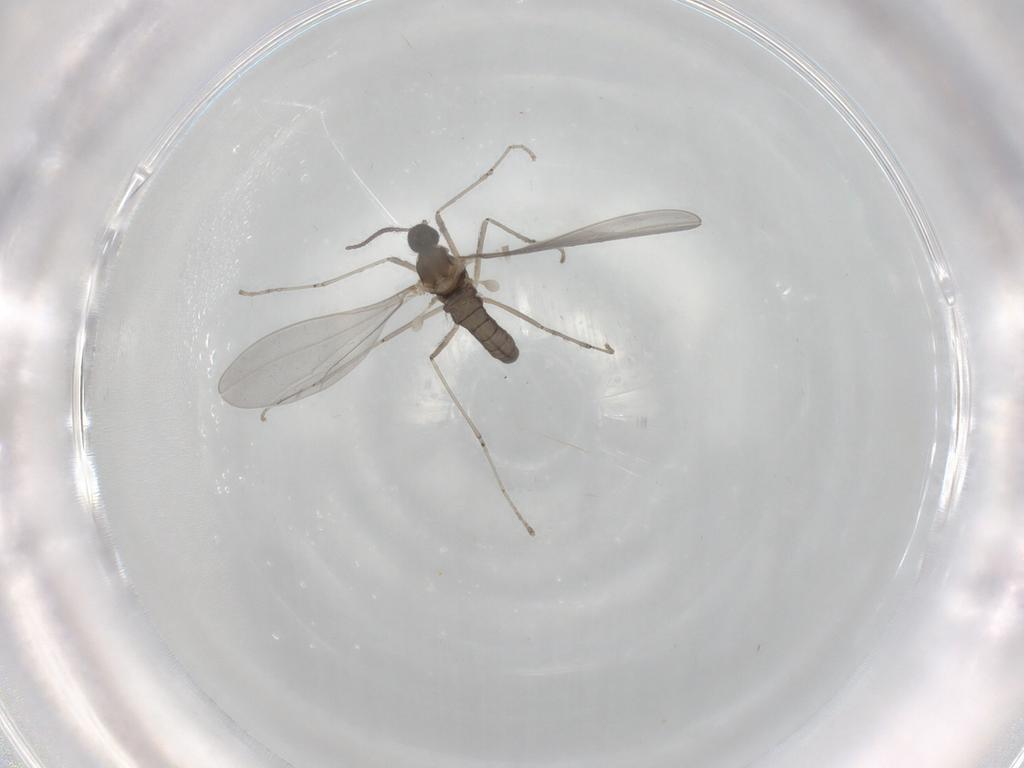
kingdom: Animalia
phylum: Arthropoda
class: Insecta
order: Diptera
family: Cecidomyiidae
